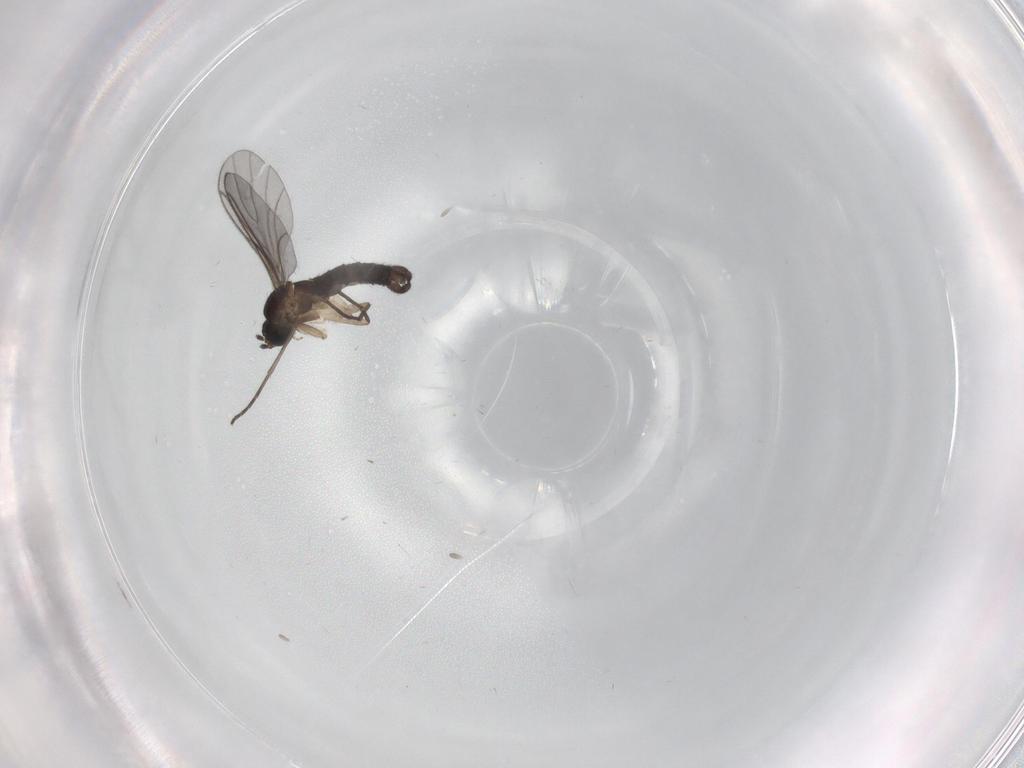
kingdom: Animalia
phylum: Arthropoda
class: Insecta
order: Diptera
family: Sciaridae
